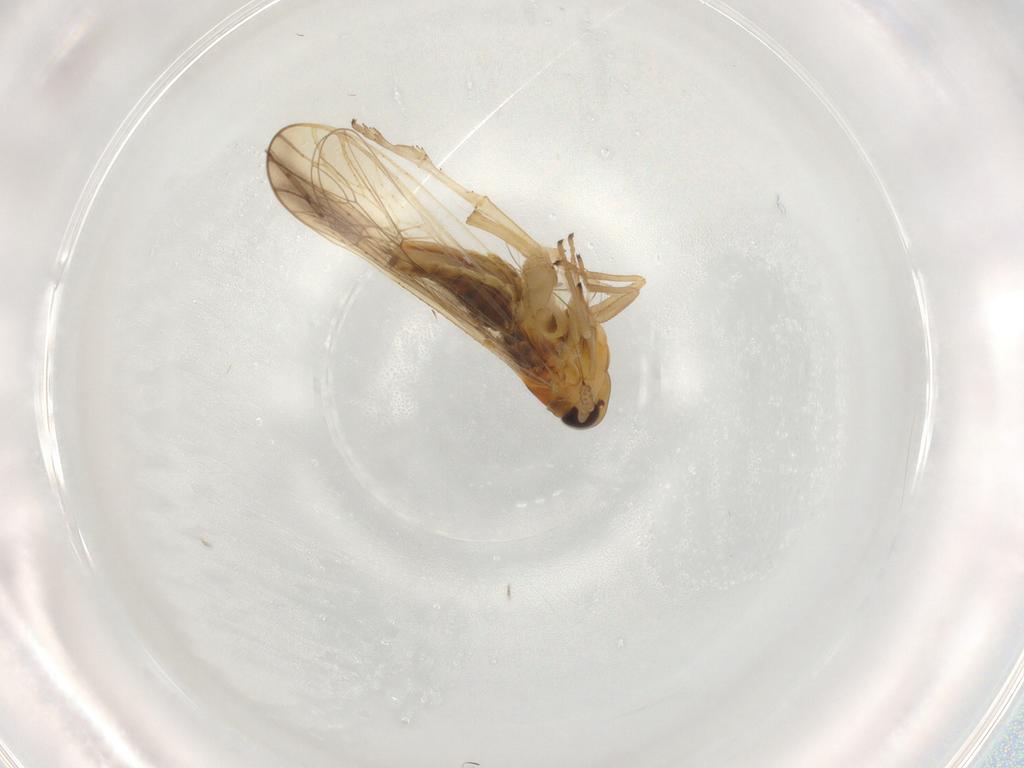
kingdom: Animalia
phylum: Arthropoda
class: Insecta
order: Hemiptera
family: Delphacidae
